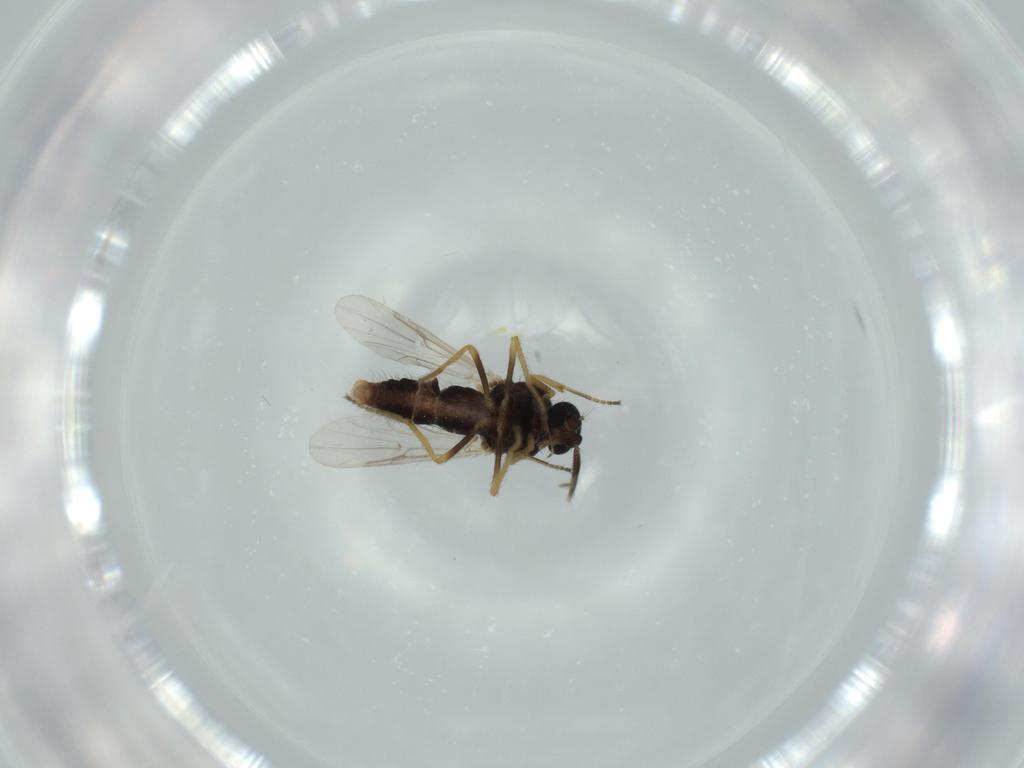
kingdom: Animalia
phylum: Arthropoda
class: Insecta
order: Diptera
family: Ceratopogonidae
